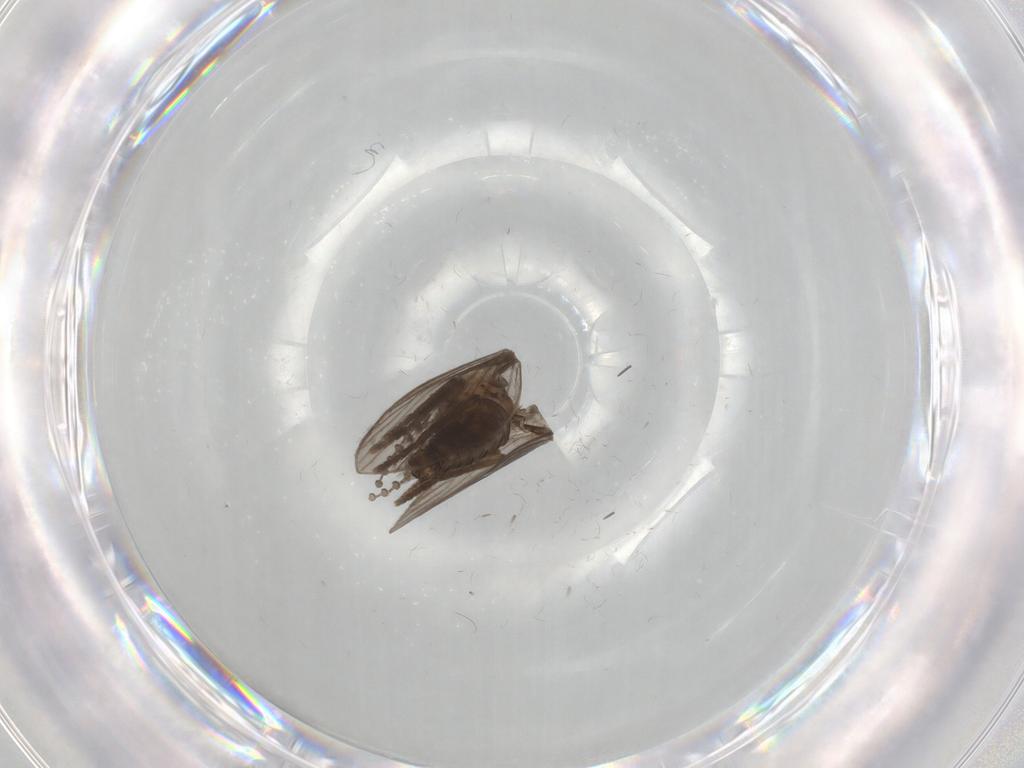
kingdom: Animalia
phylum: Arthropoda
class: Insecta
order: Diptera
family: Psychodidae
